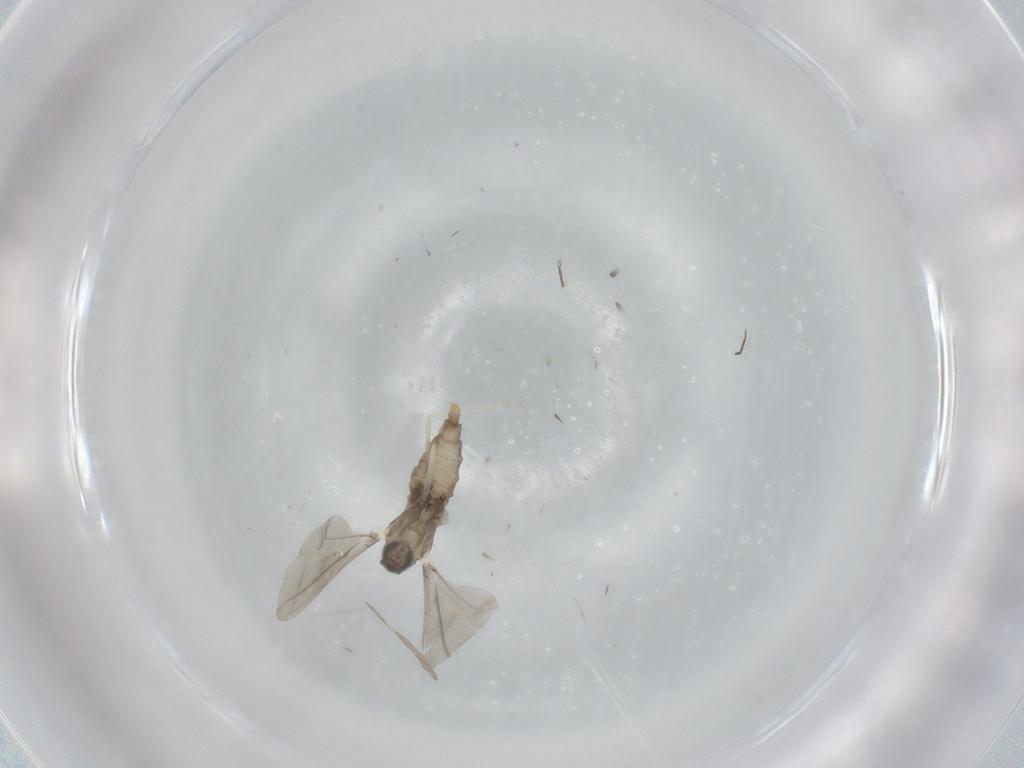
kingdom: Animalia
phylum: Arthropoda
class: Insecta
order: Diptera
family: Cecidomyiidae
